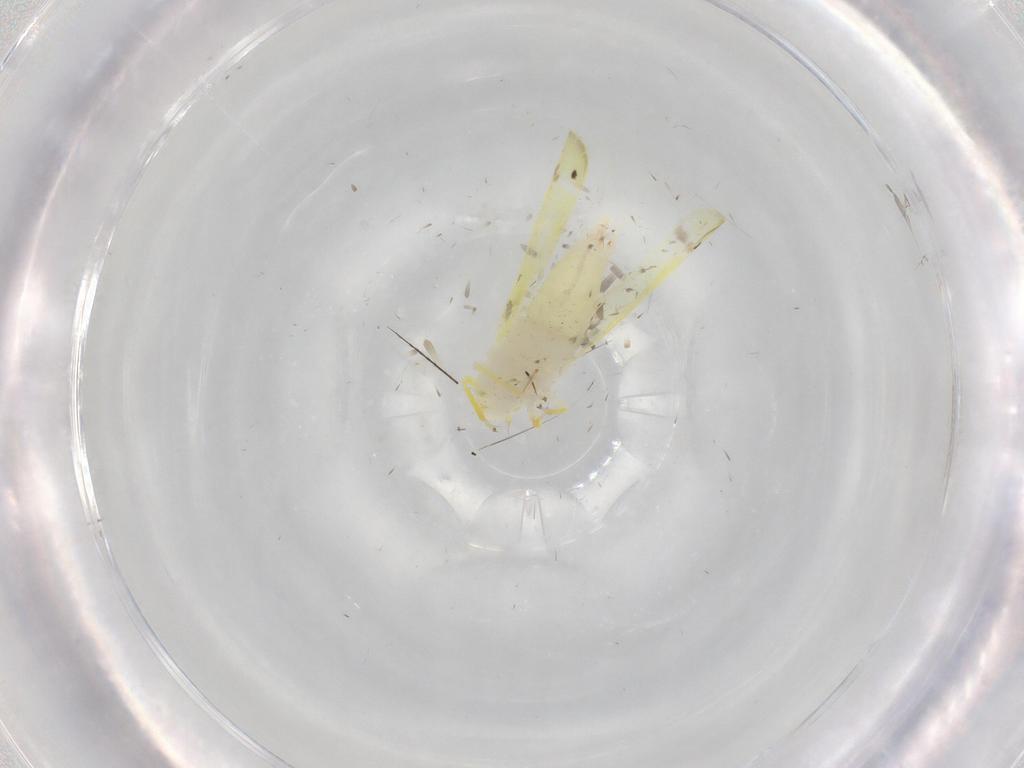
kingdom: Animalia
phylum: Arthropoda
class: Insecta
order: Hemiptera
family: Cicadellidae
